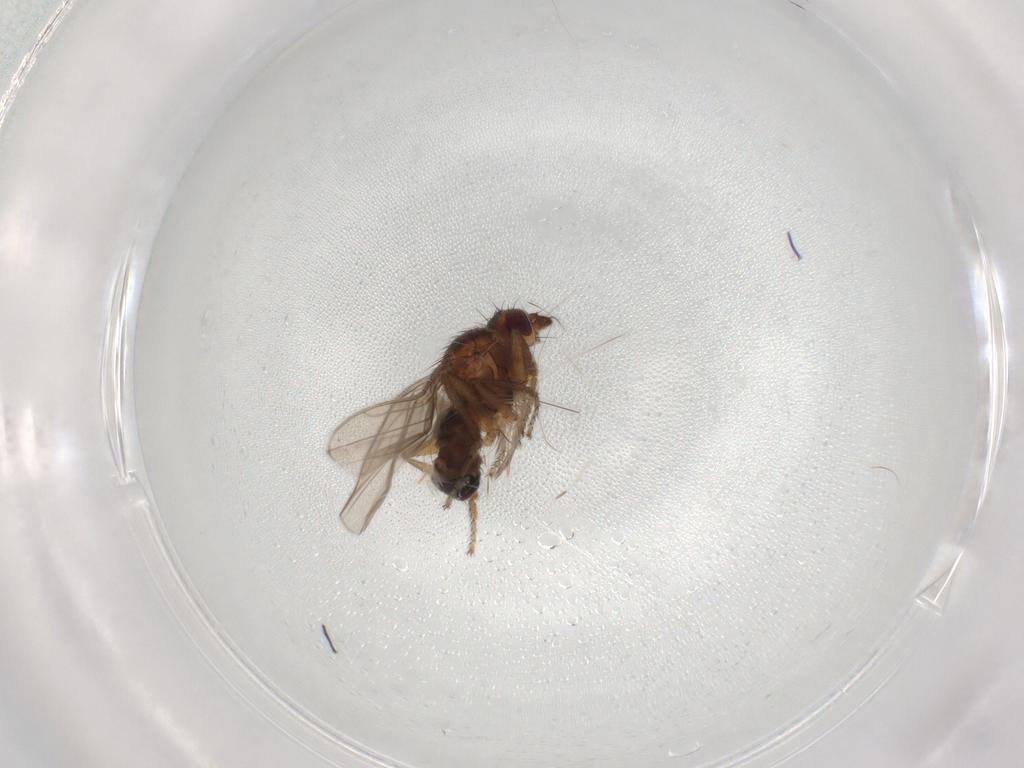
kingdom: Animalia
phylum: Arthropoda
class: Insecta
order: Diptera
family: Sphaeroceridae
